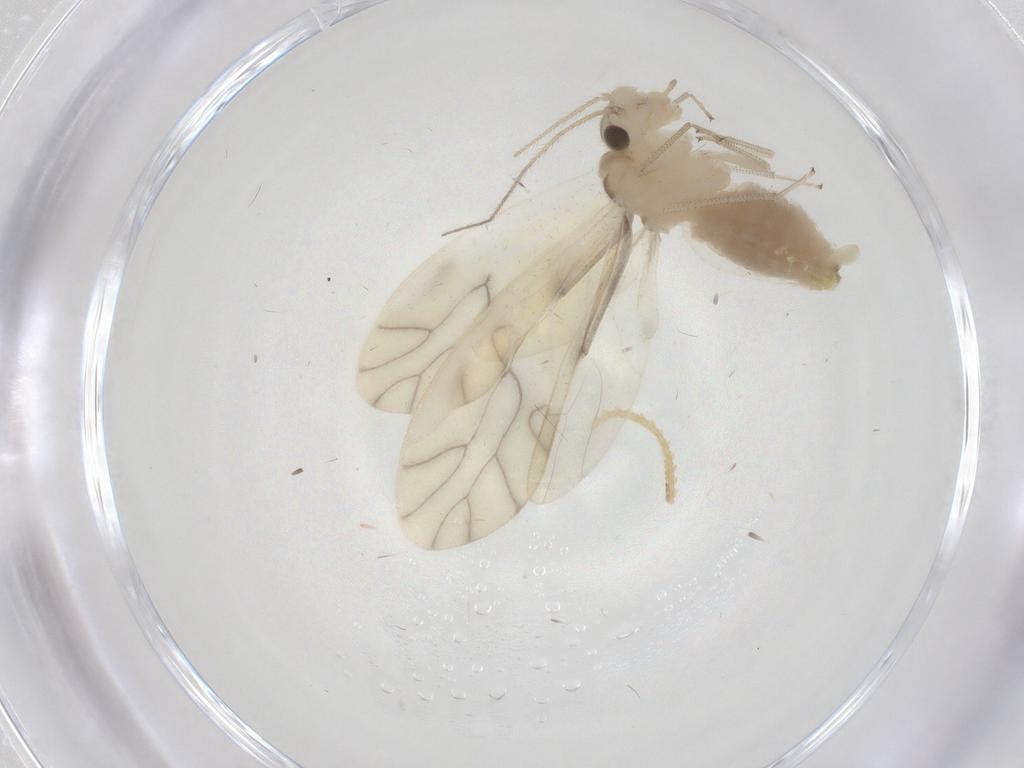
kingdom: Animalia
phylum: Arthropoda
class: Insecta
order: Psocodea
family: Caeciliusidae
